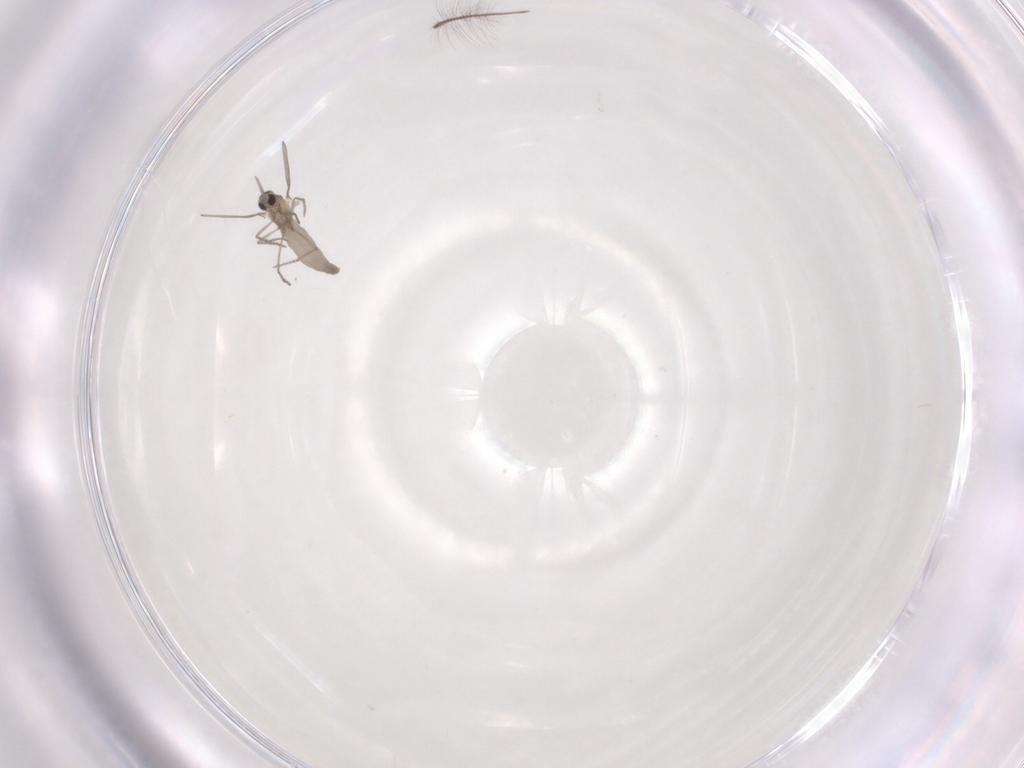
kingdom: Animalia
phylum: Arthropoda
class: Insecta
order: Diptera
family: Cecidomyiidae
